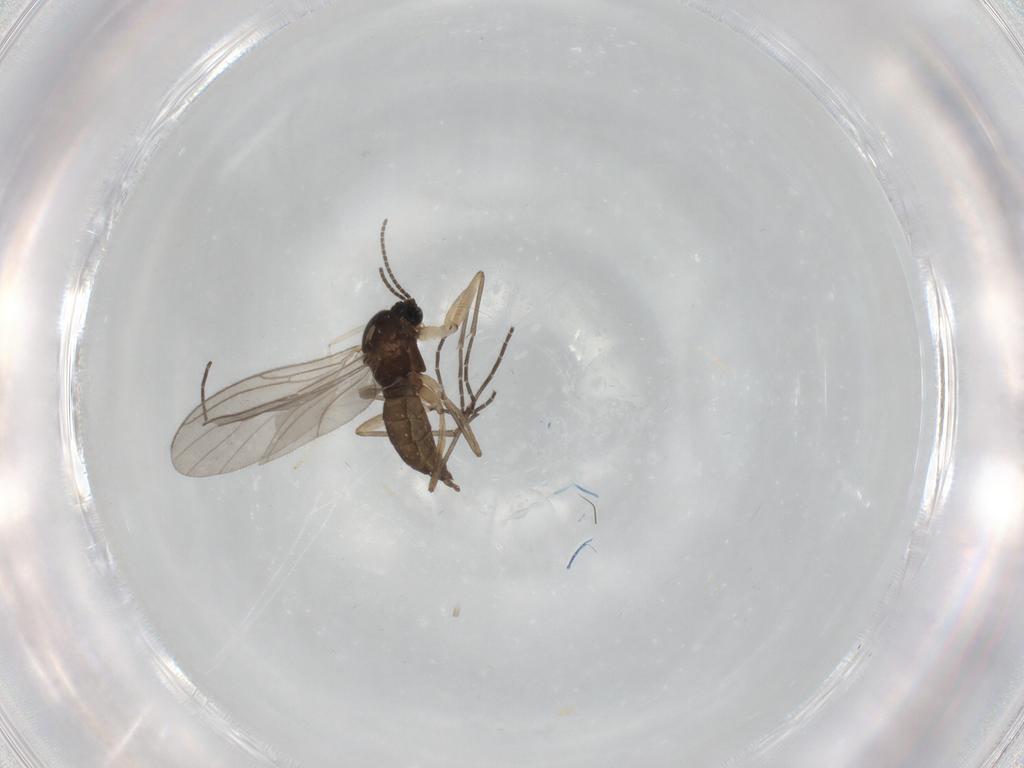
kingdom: Animalia
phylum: Arthropoda
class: Insecta
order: Diptera
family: Sciaridae
